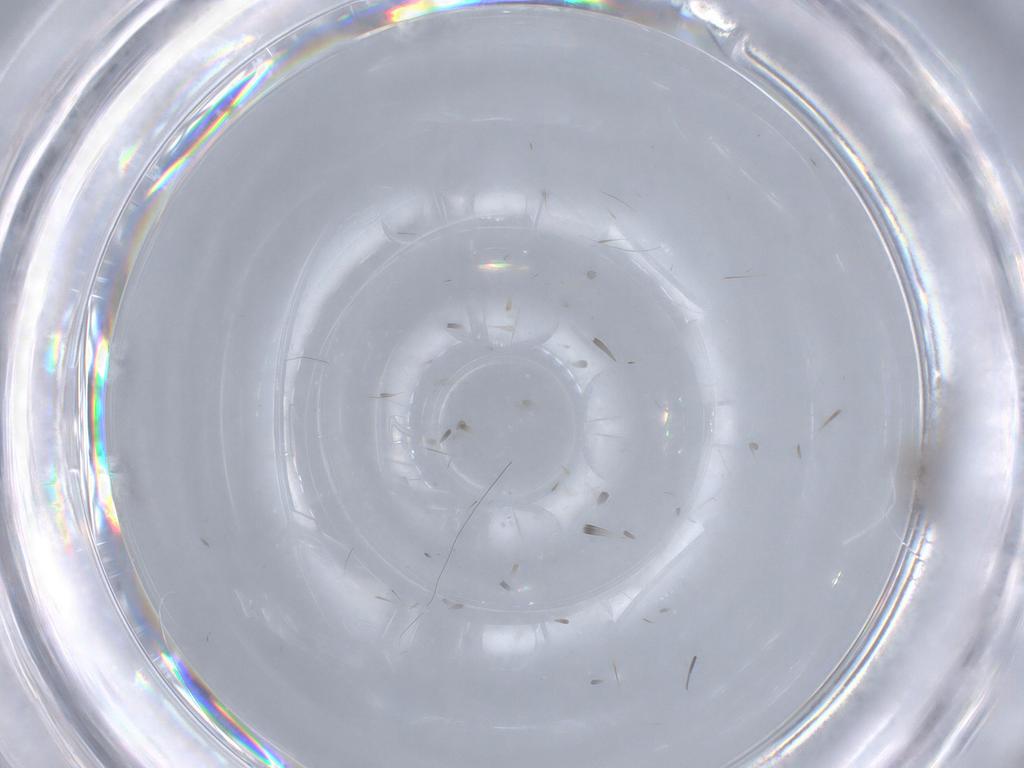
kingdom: Animalia
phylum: Arthropoda
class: Insecta
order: Diptera
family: Chironomidae
